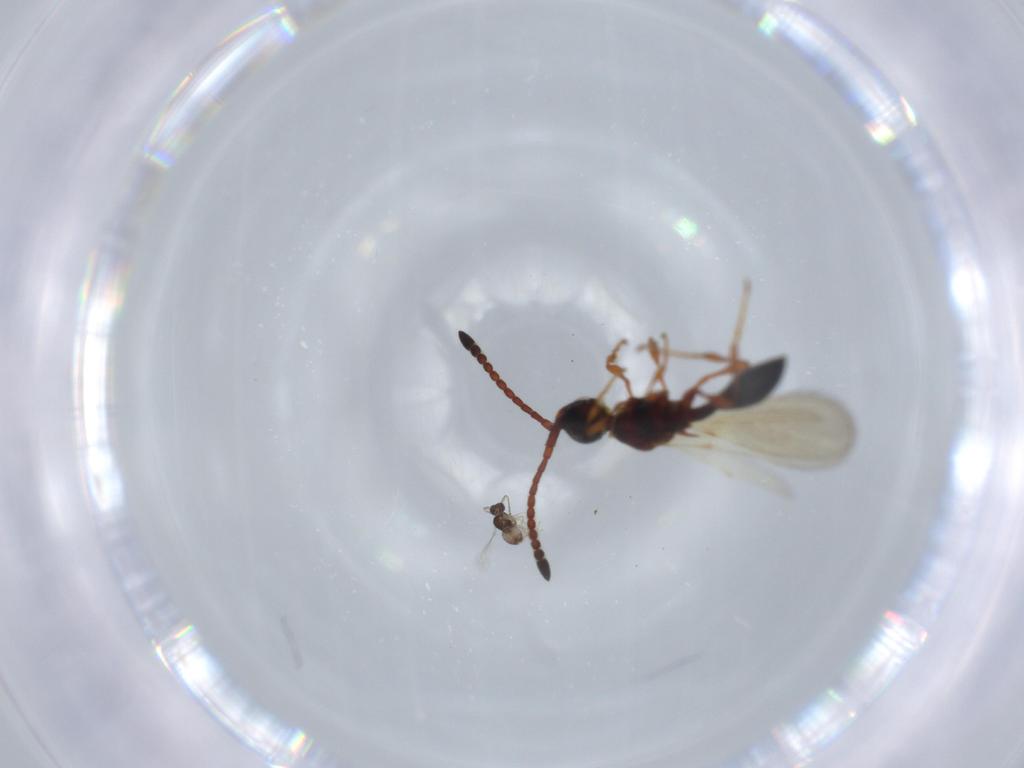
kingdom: Animalia
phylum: Arthropoda
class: Insecta
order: Hymenoptera
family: Diapriidae
